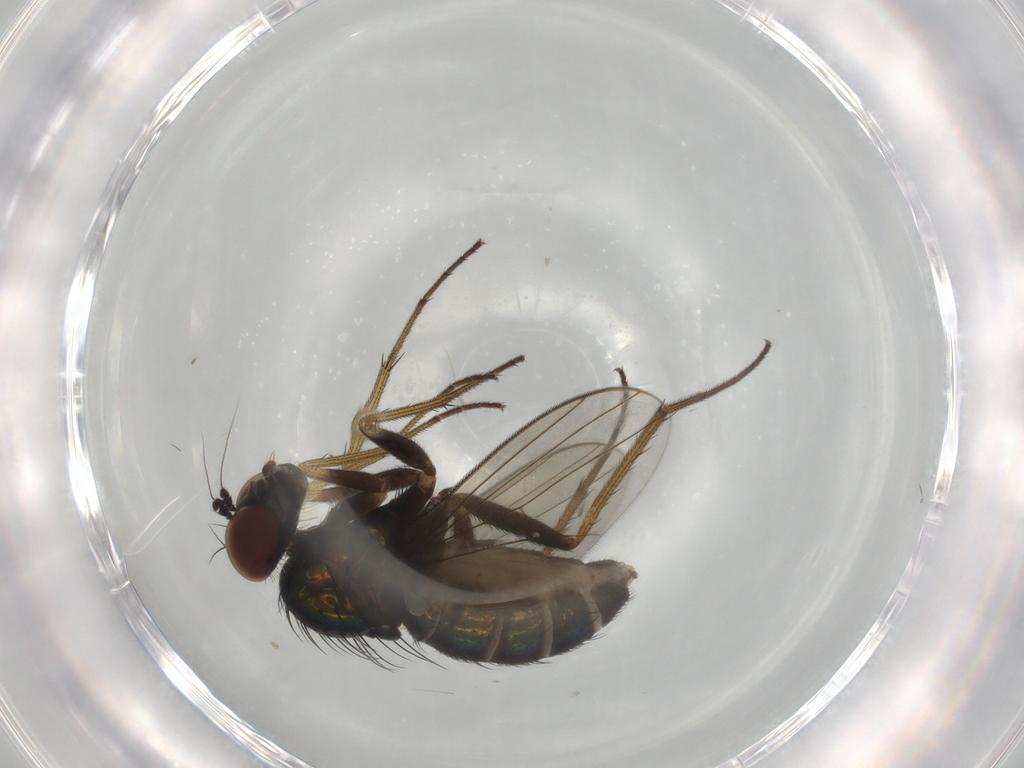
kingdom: Animalia
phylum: Arthropoda
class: Insecta
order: Diptera
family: Dolichopodidae
